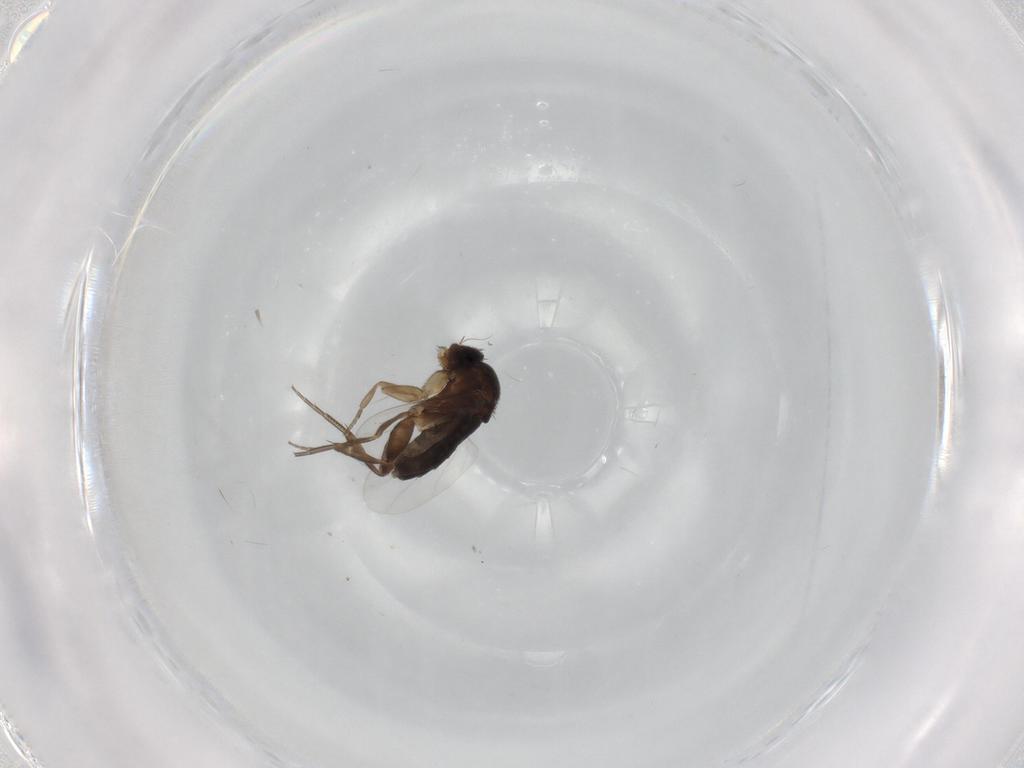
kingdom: Animalia
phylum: Arthropoda
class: Insecta
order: Diptera
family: Phoridae
